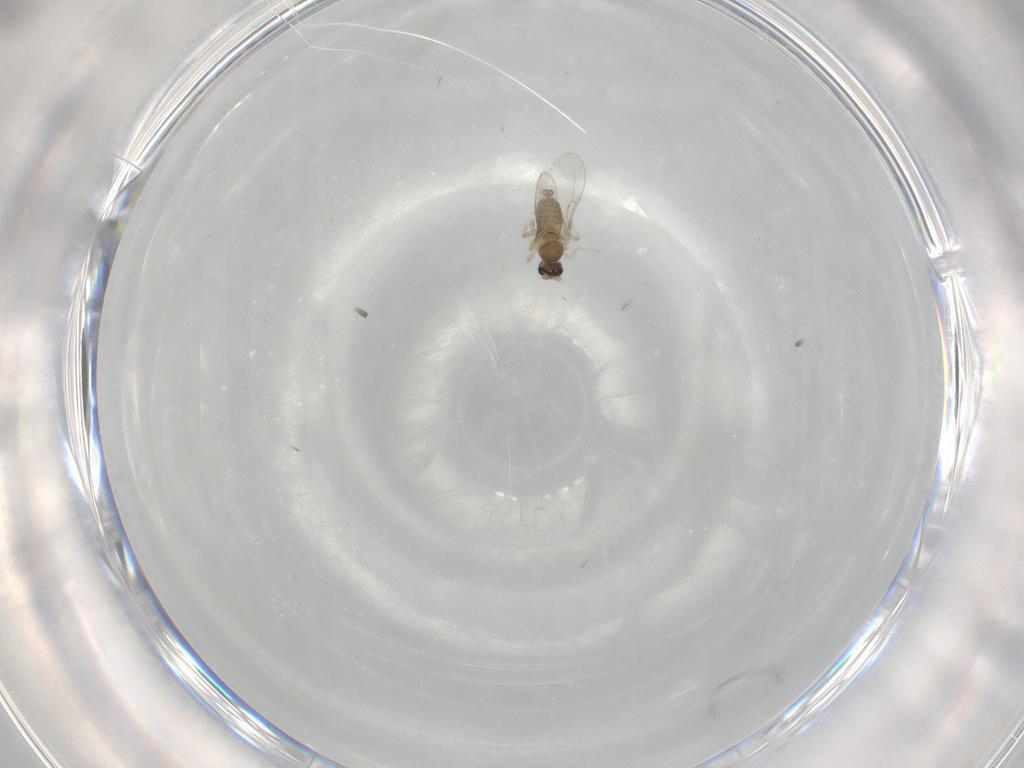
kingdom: Animalia
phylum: Arthropoda
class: Insecta
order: Diptera
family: Cecidomyiidae
